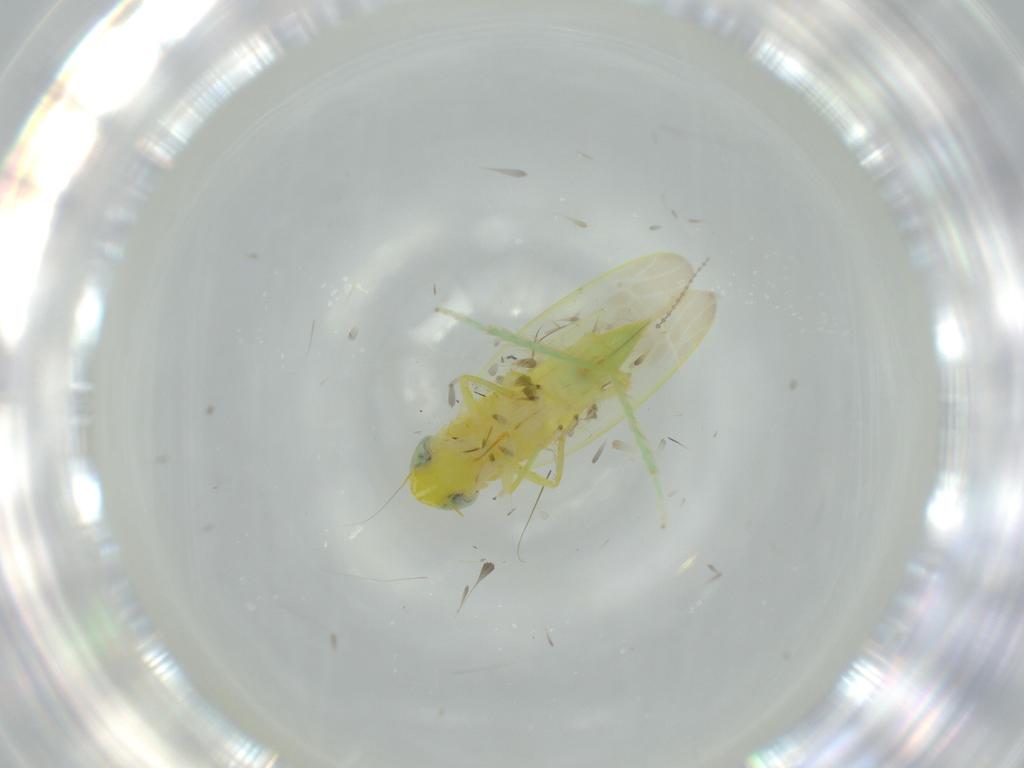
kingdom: Animalia
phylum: Arthropoda
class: Insecta
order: Hemiptera
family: Cicadellidae
